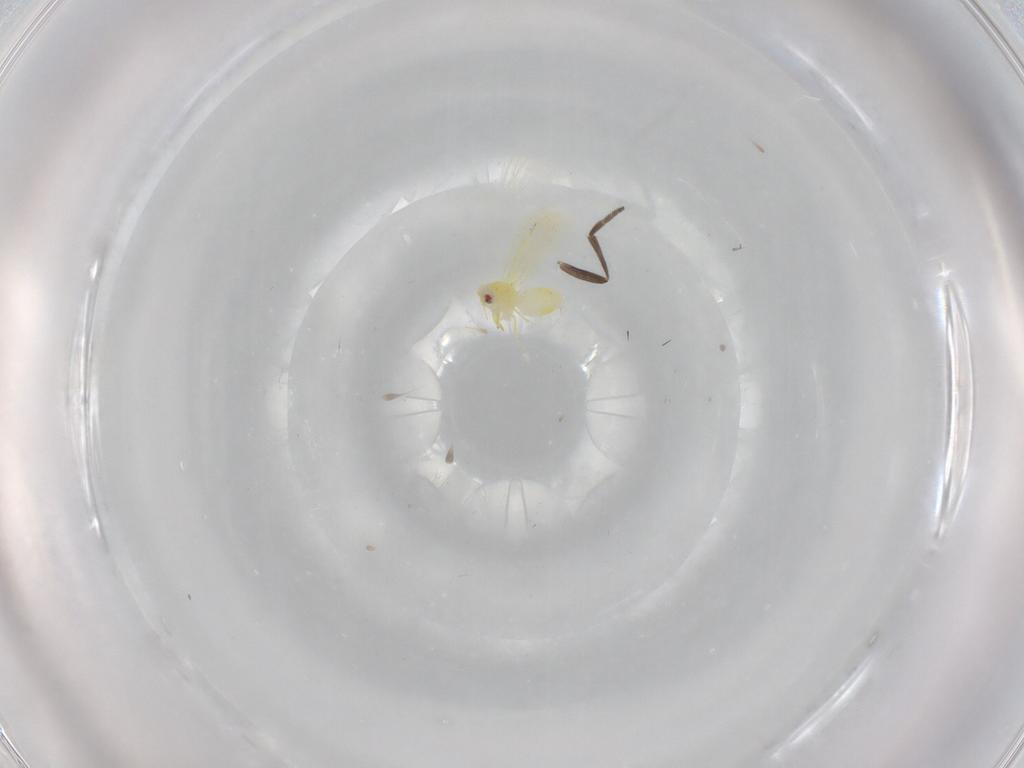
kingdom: Animalia
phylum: Arthropoda
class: Insecta
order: Hemiptera
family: Aleyrodidae
